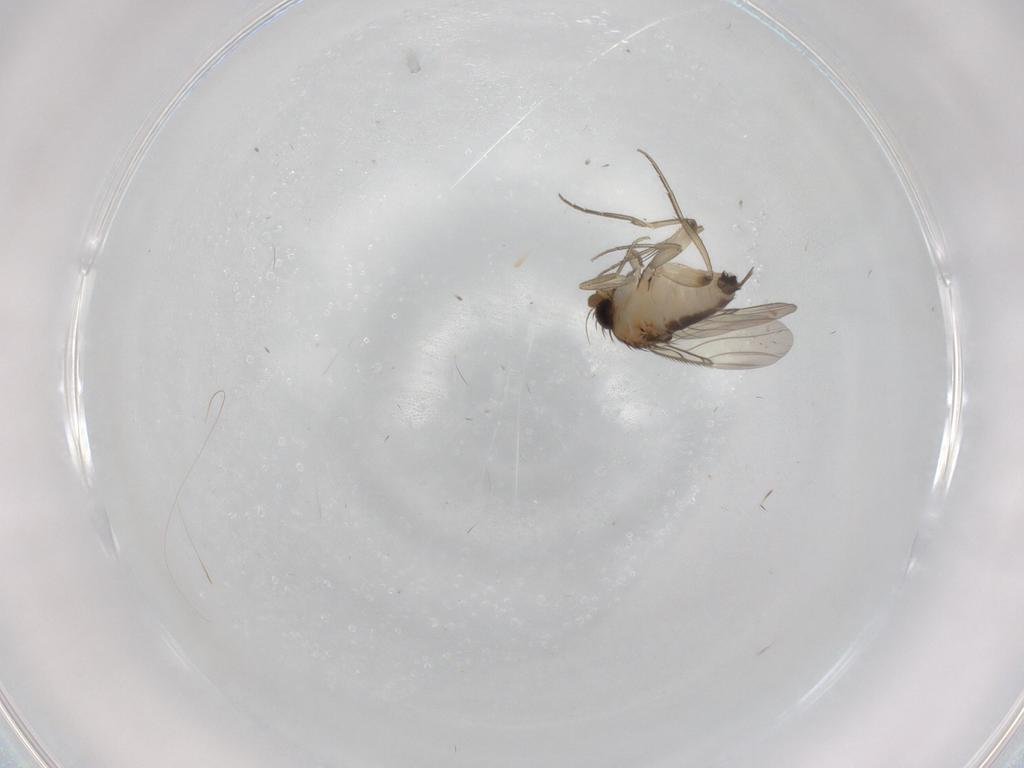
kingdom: Animalia
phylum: Arthropoda
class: Insecta
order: Diptera
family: Phoridae
